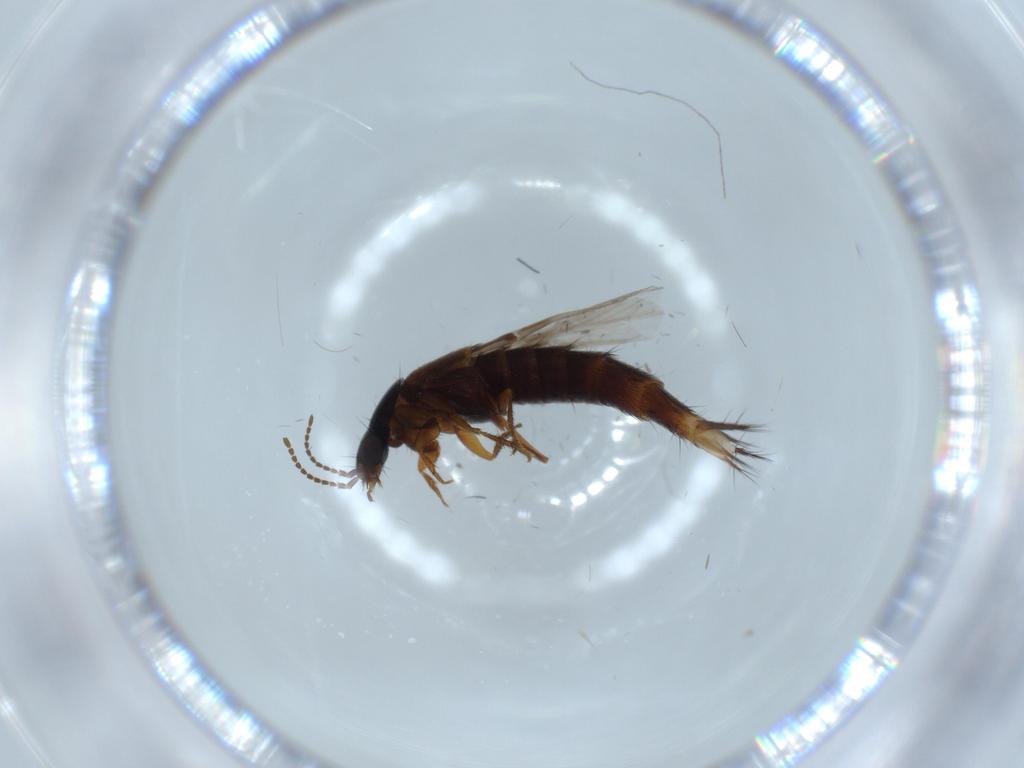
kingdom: Animalia
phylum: Arthropoda
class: Insecta
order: Coleoptera
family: Staphylinidae
